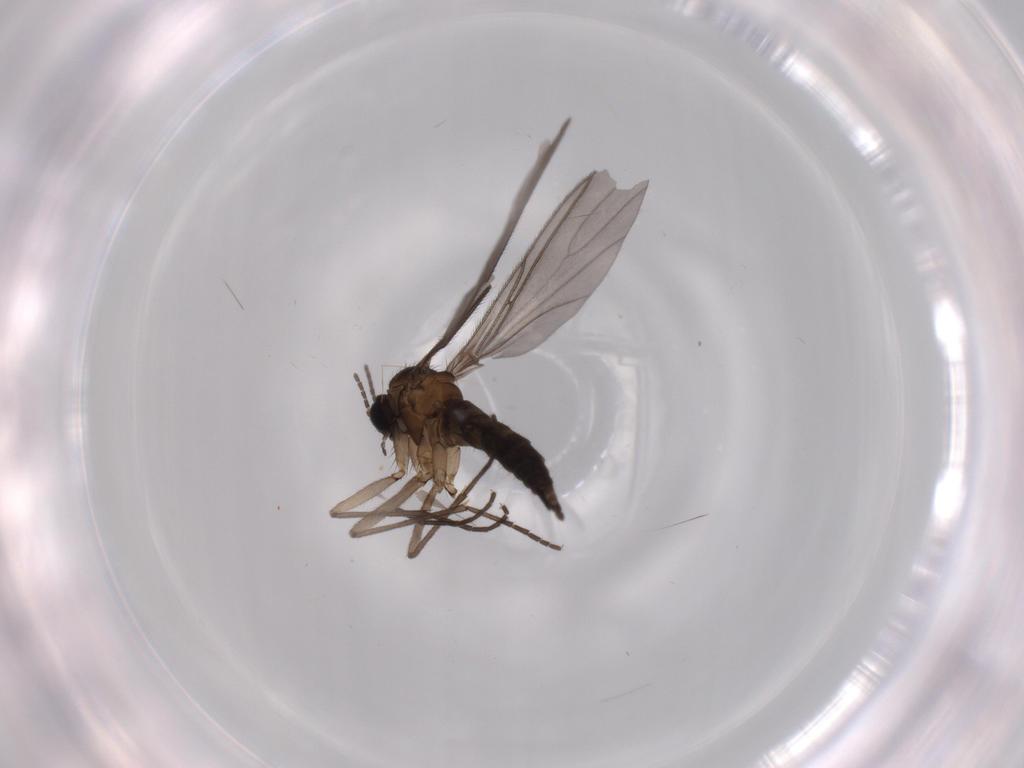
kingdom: Animalia
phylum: Arthropoda
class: Insecta
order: Diptera
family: Sciaridae
